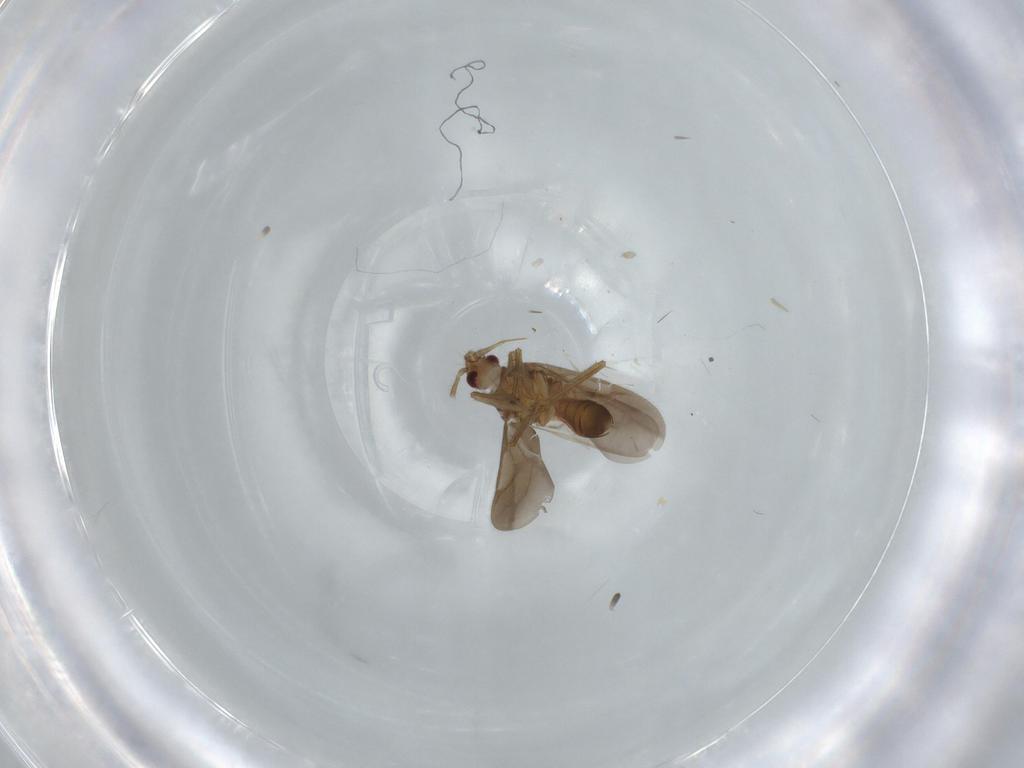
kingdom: Animalia
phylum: Arthropoda
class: Insecta
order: Hemiptera
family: Ceratocombidae
